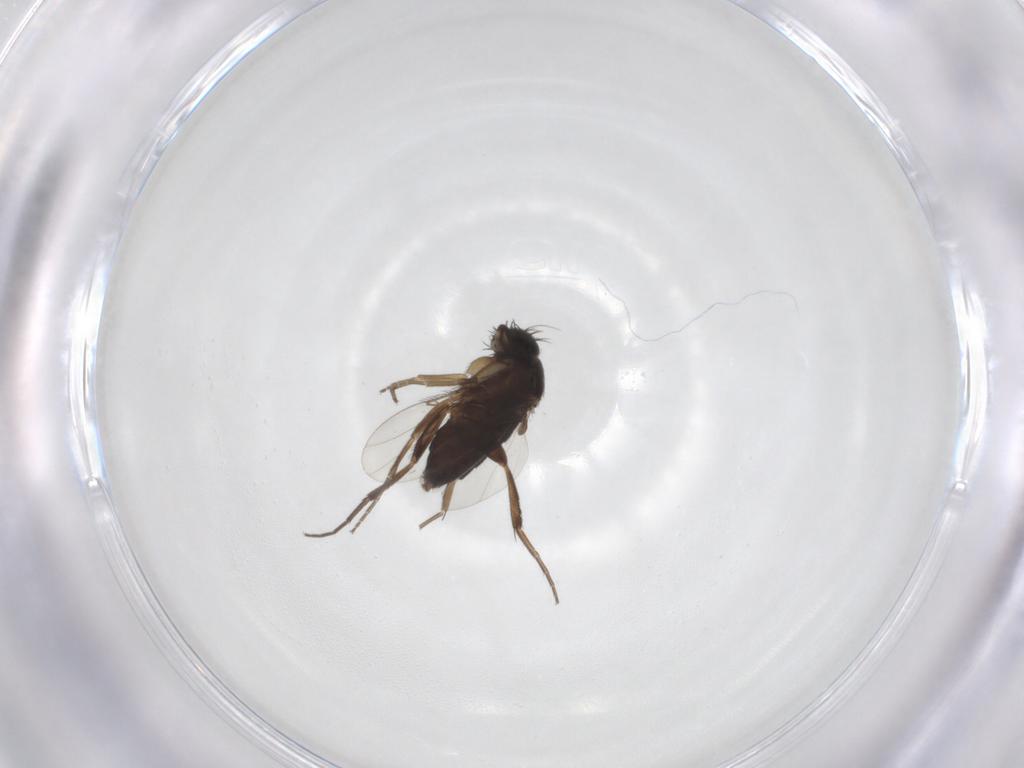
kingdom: Animalia
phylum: Arthropoda
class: Insecta
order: Diptera
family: Phoridae
